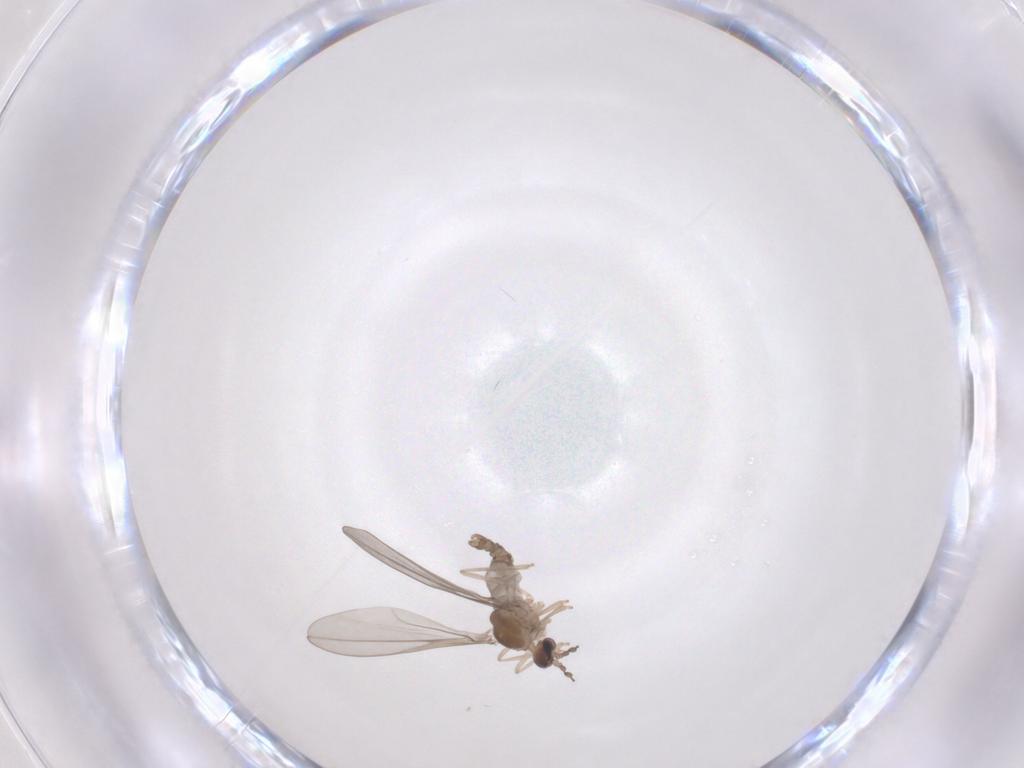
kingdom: Animalia
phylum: Arthropoda
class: Insecta
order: Diptera
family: Cecidomyiidae
